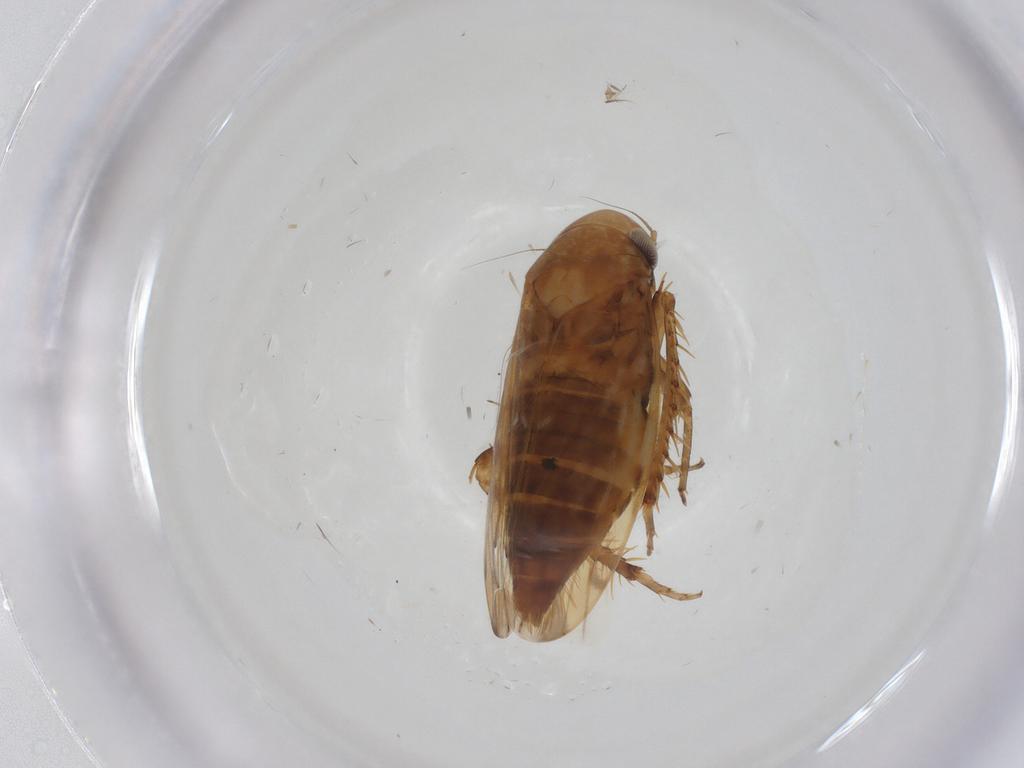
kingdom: Animalia
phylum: Arthropoda
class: Insecta
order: Hemiptera
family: Cicadellidae
